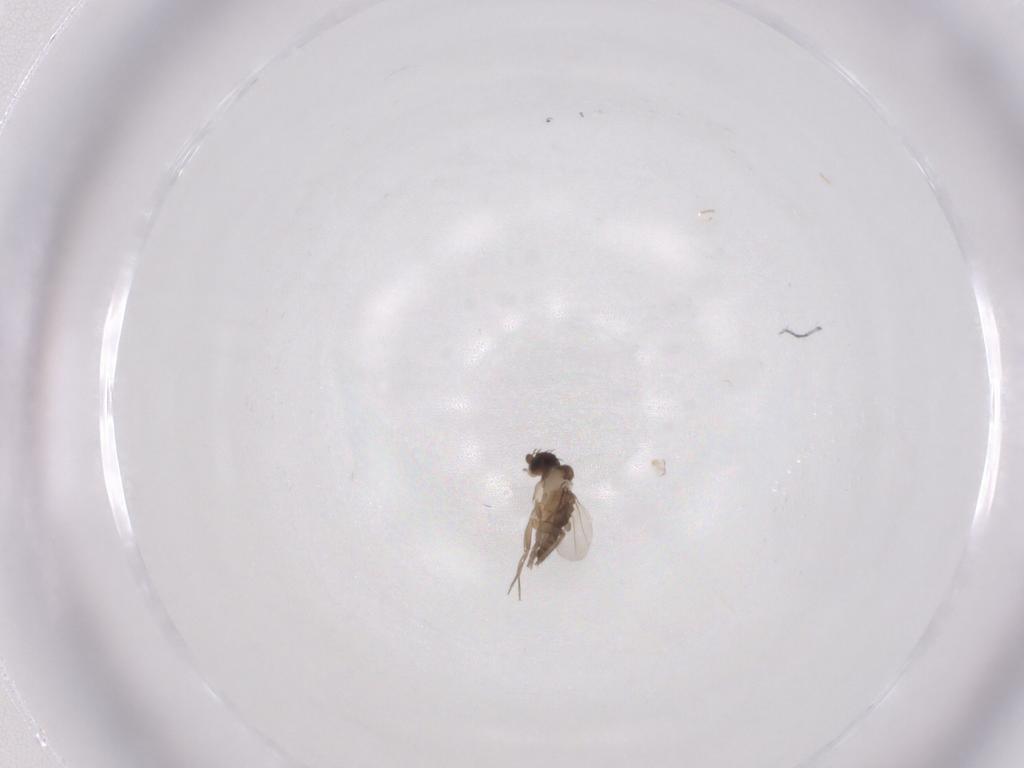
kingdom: Animalia
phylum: Arthropoda
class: Insecta
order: Diptera
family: Phoridae
